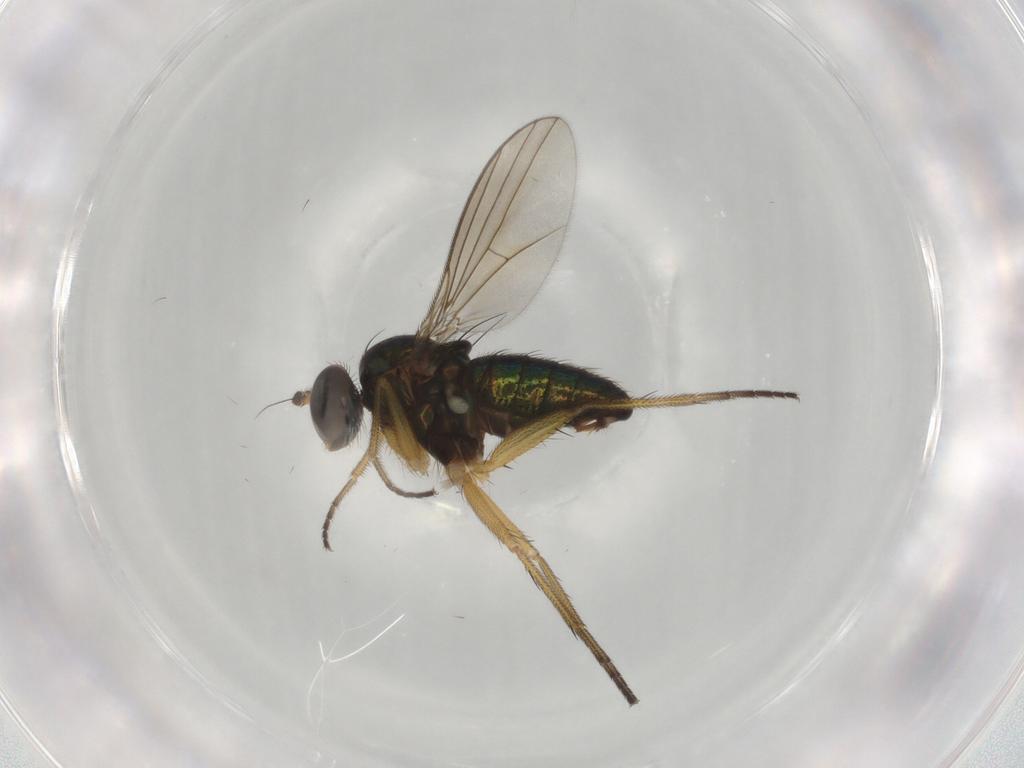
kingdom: Animalia
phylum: Arthropoda
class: Insecta
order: Diptera
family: Dolichopodidae
